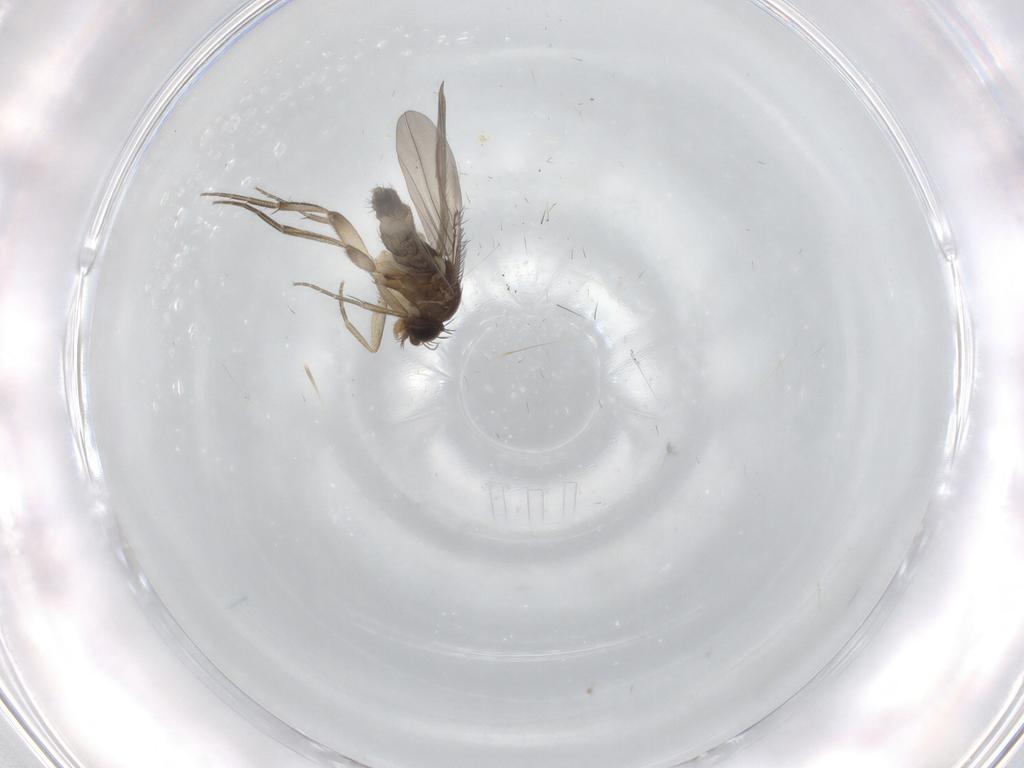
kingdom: Animalia
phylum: Arthropoda
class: Insecta
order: Diptera
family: Phoridae
